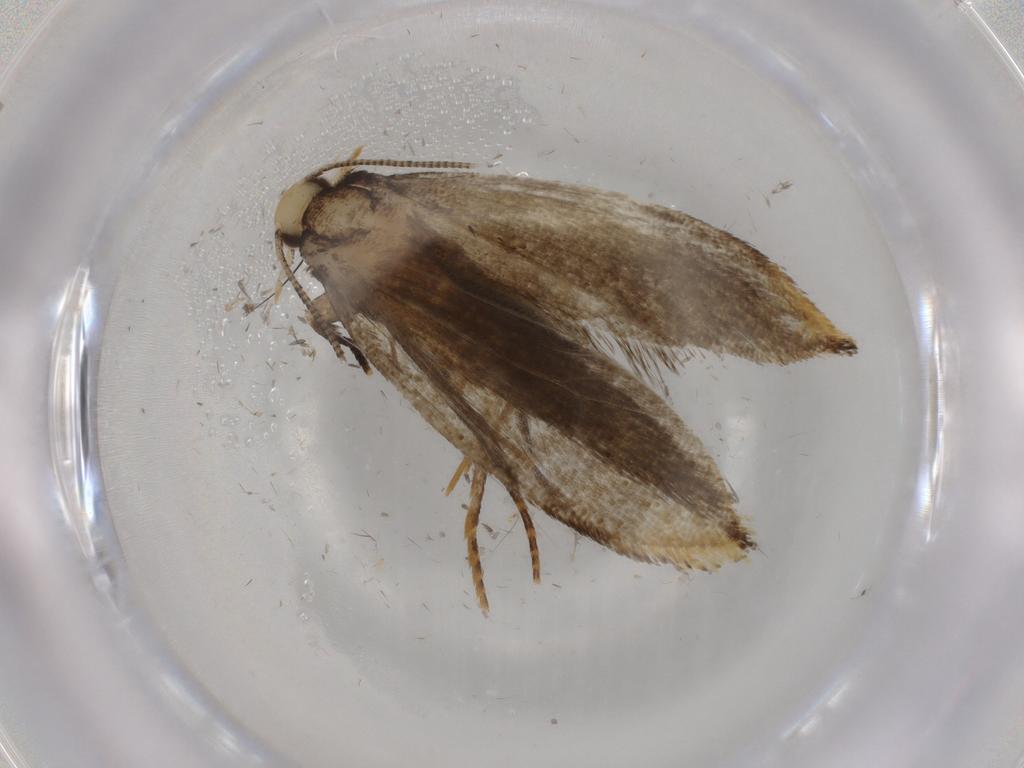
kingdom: Animalia
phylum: Arthropoda
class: Insecta
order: Lepidoptera
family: Pieridae
